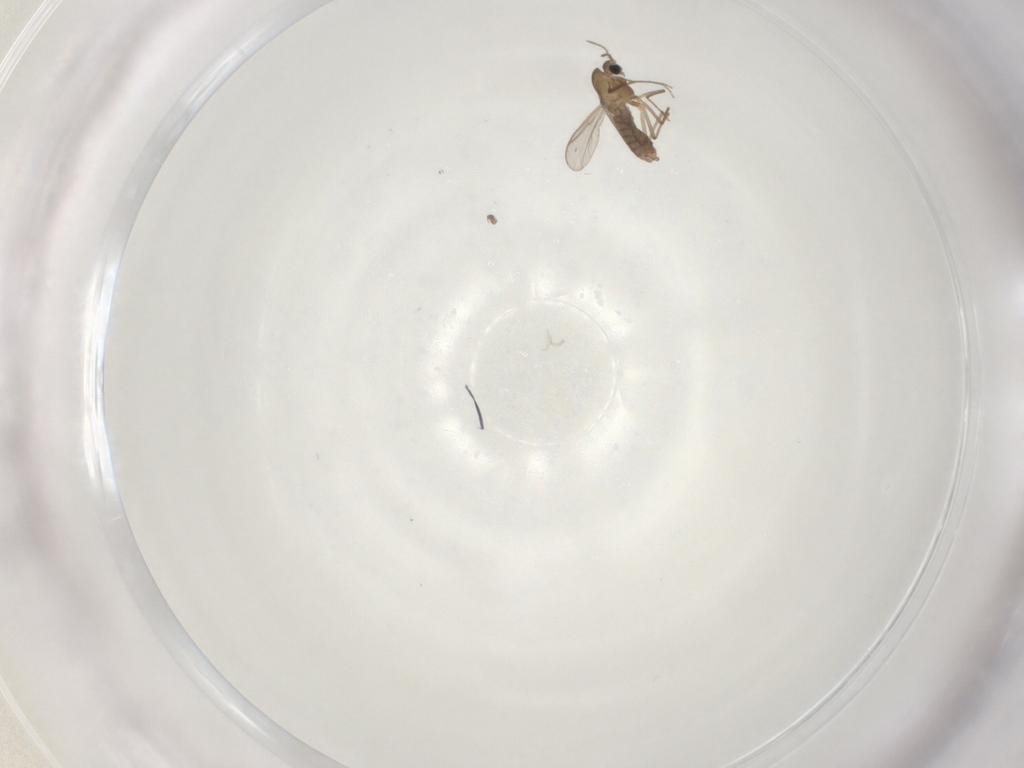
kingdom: Animalia
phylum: Arthropoda
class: Insecta
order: Diptera
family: Chironomidae
